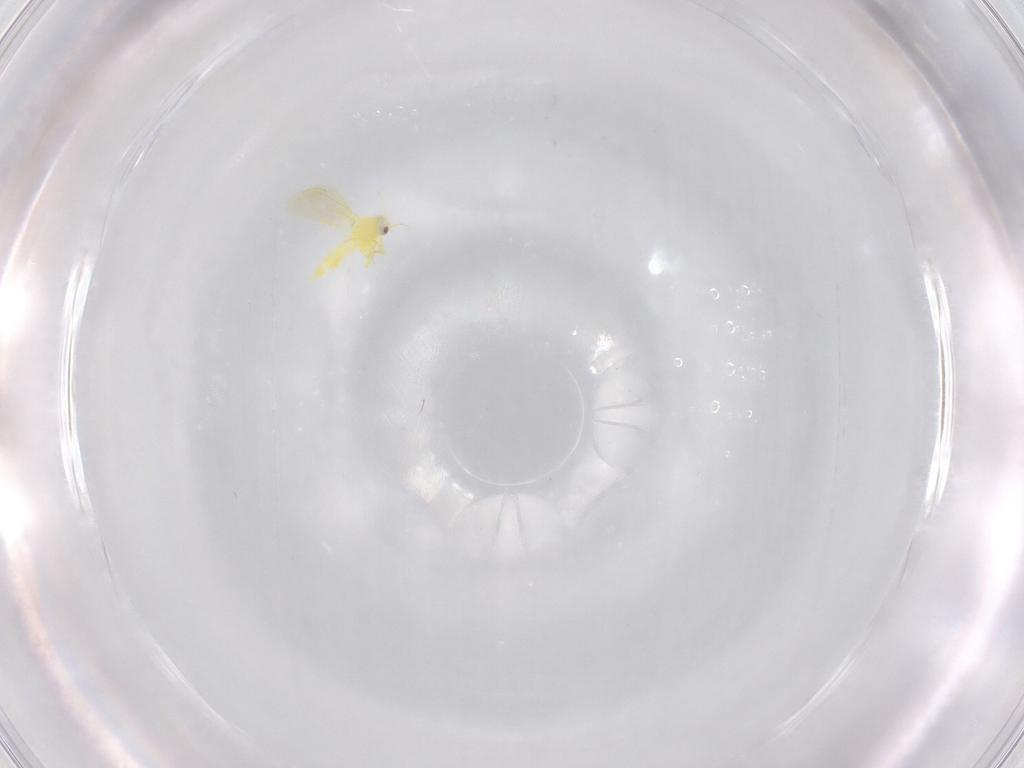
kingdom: Animalia
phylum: Arthropoda
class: Insecta
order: Hemiptera
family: Aleyrodidae
